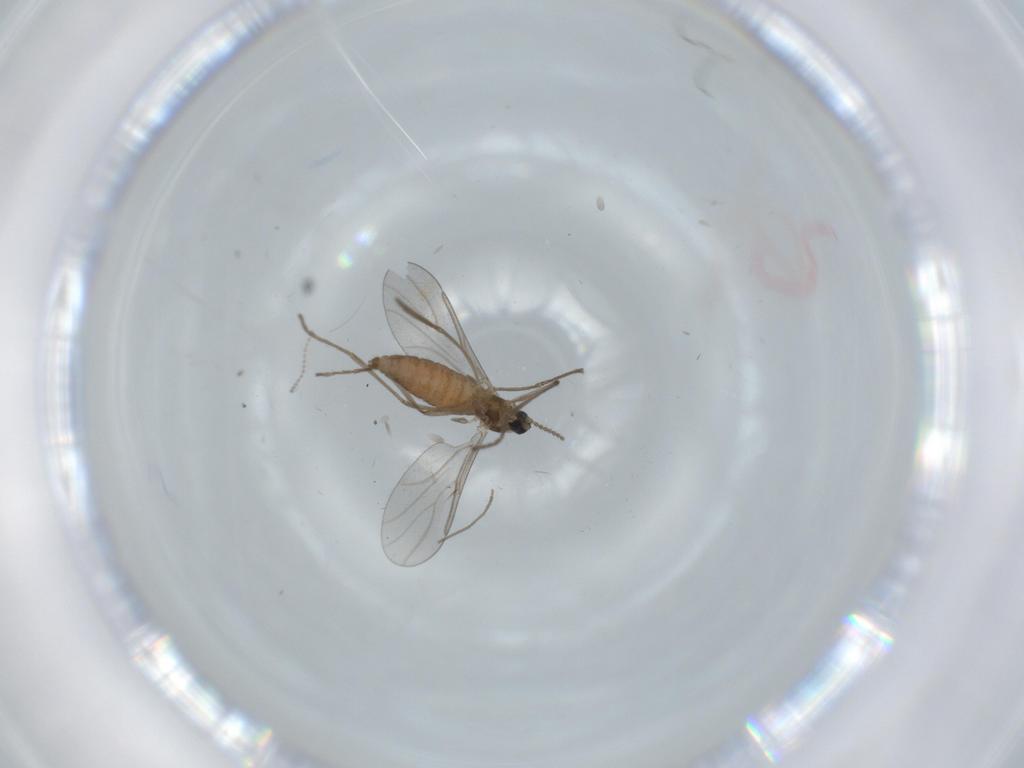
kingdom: Animalia
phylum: Arthropoda
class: Insecta
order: Diptera
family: Cecidomyiidae
